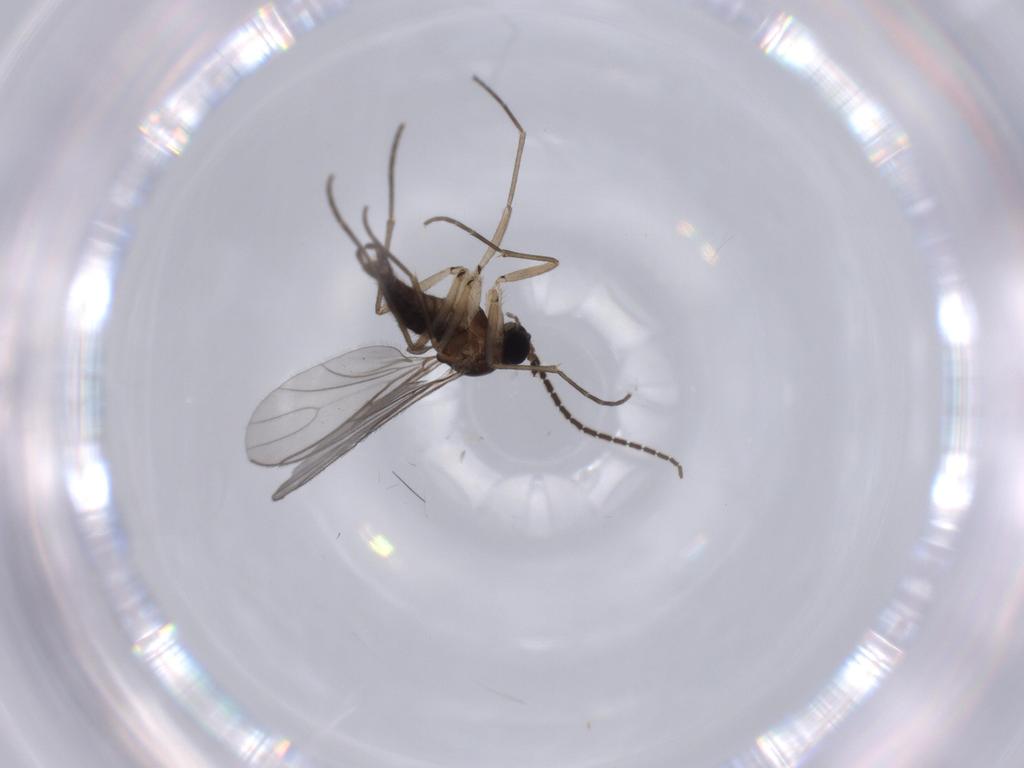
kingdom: Animalia
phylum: Arthropoda
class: Insecta
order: Diptera
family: Sciaridae
